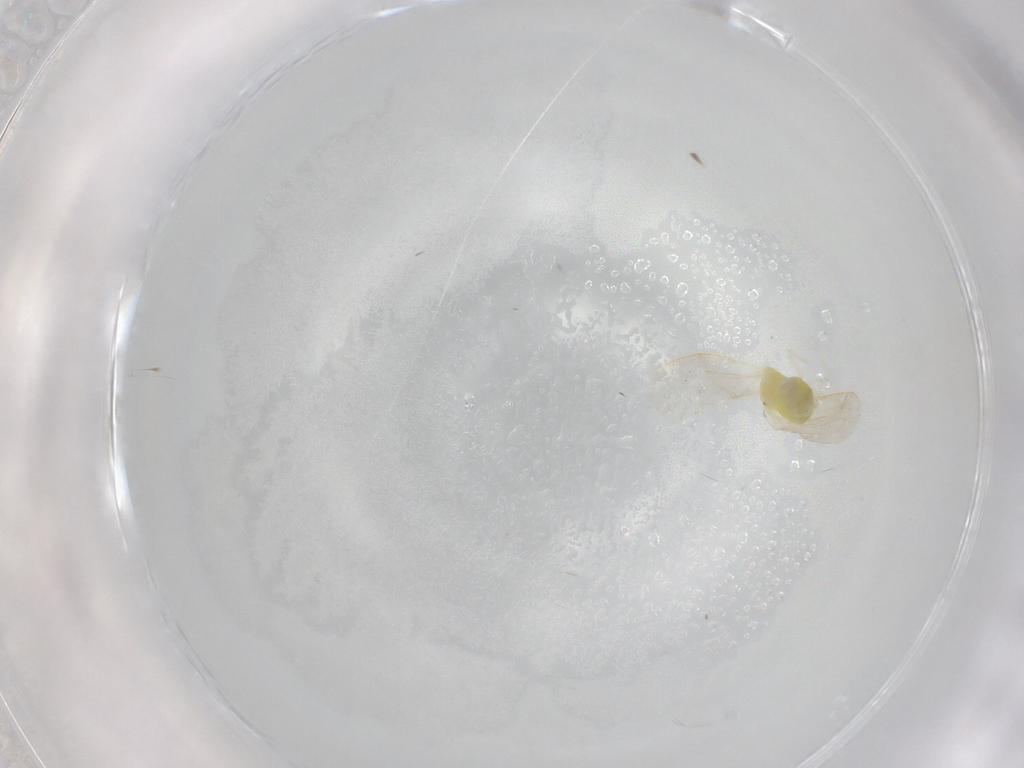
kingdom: Animalia
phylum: Arthropoda
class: Insecta
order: Hemiptera
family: Aleyrodidae
